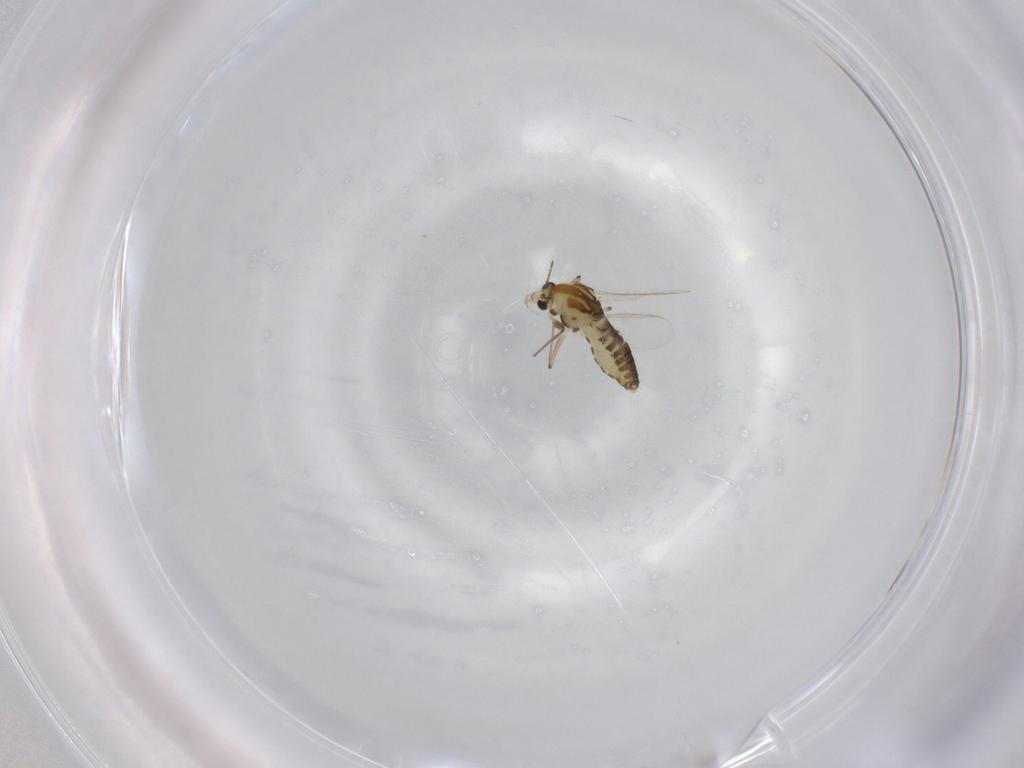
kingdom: Animalia
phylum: Arthropoda
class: Insecta
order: Diptera
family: Chironomidae
